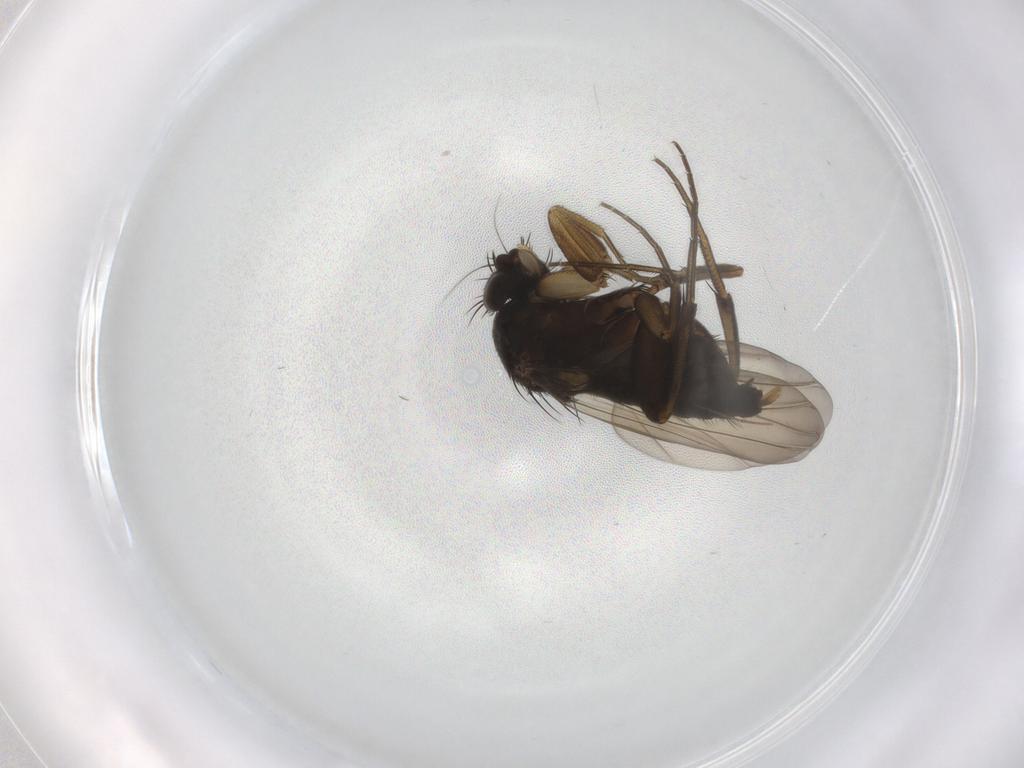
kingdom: Animalia
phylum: Arthropoda
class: Insecta
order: Diptera
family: Phoridae
